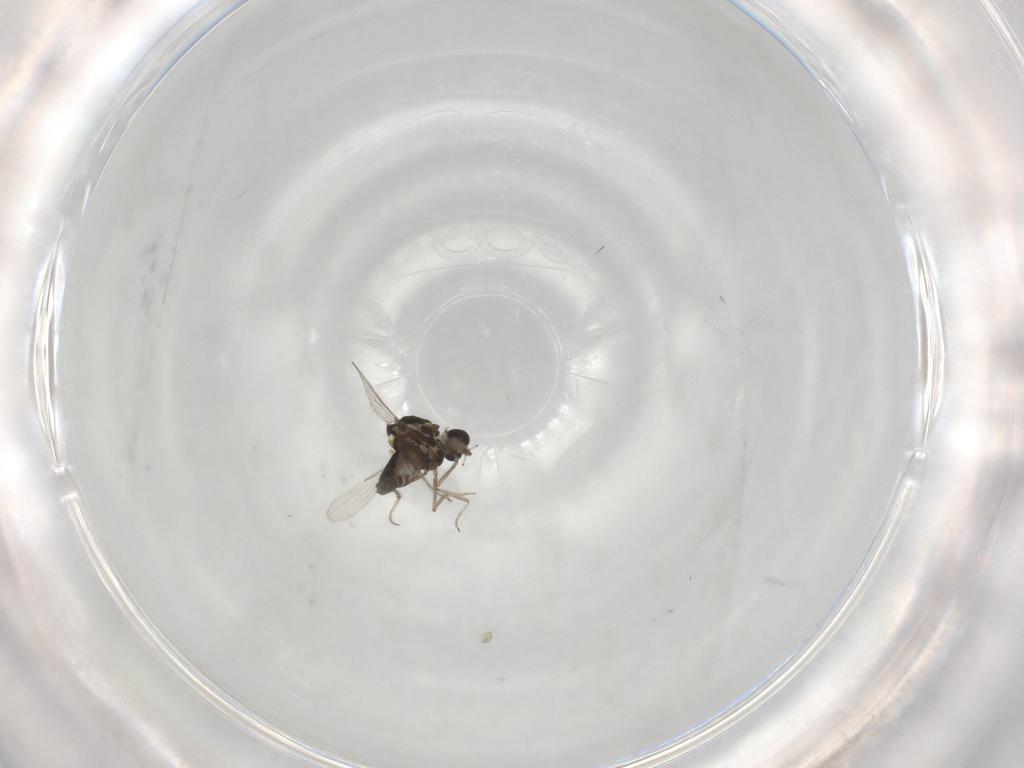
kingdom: Animalia
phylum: Arthropoda
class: Insecta
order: Diptera
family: Ceratopogonidae
